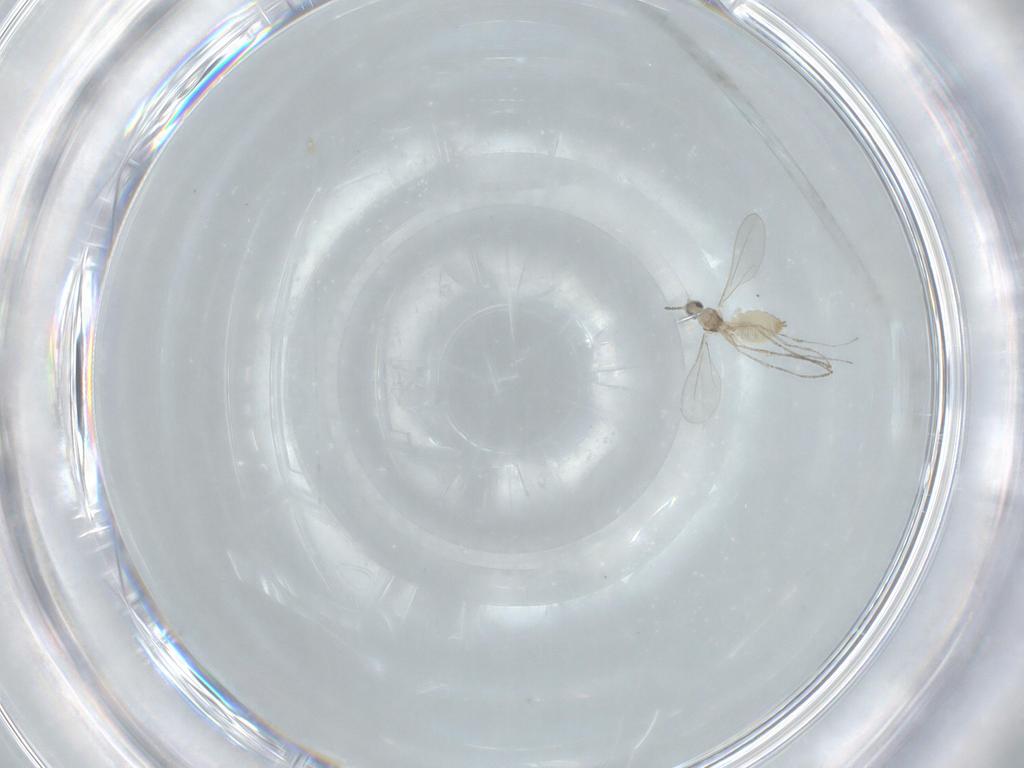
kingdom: Animalia
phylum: Arthropoda
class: Insecta
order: Diptera
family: Cecidomyiidae
